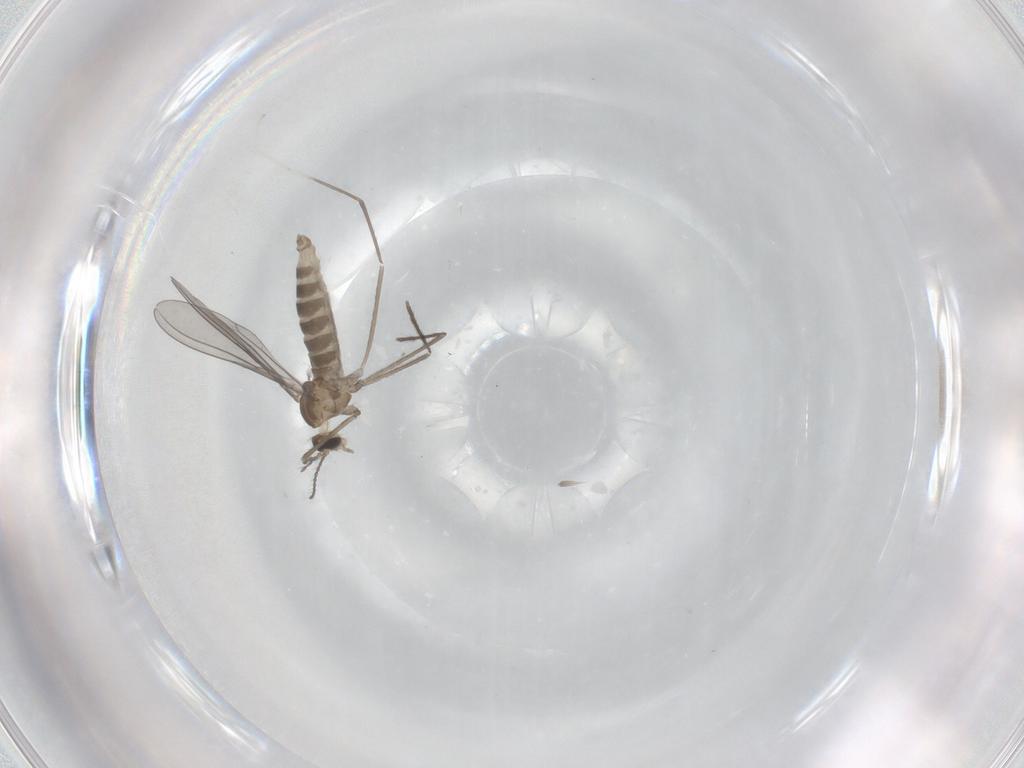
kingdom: Animalia
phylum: Arthropoda
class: Insecta
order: Diptera
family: Cecidomyiidae
